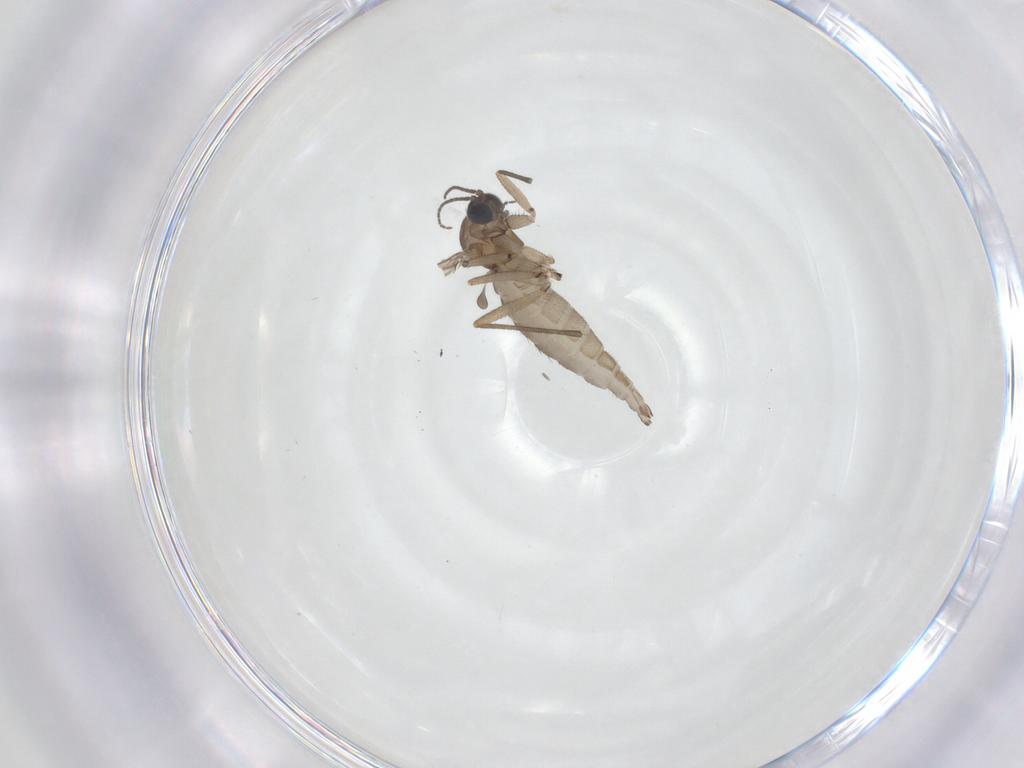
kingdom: Animalia
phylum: Arthropoda
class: Insecta
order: Diptera
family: Sciaridae
